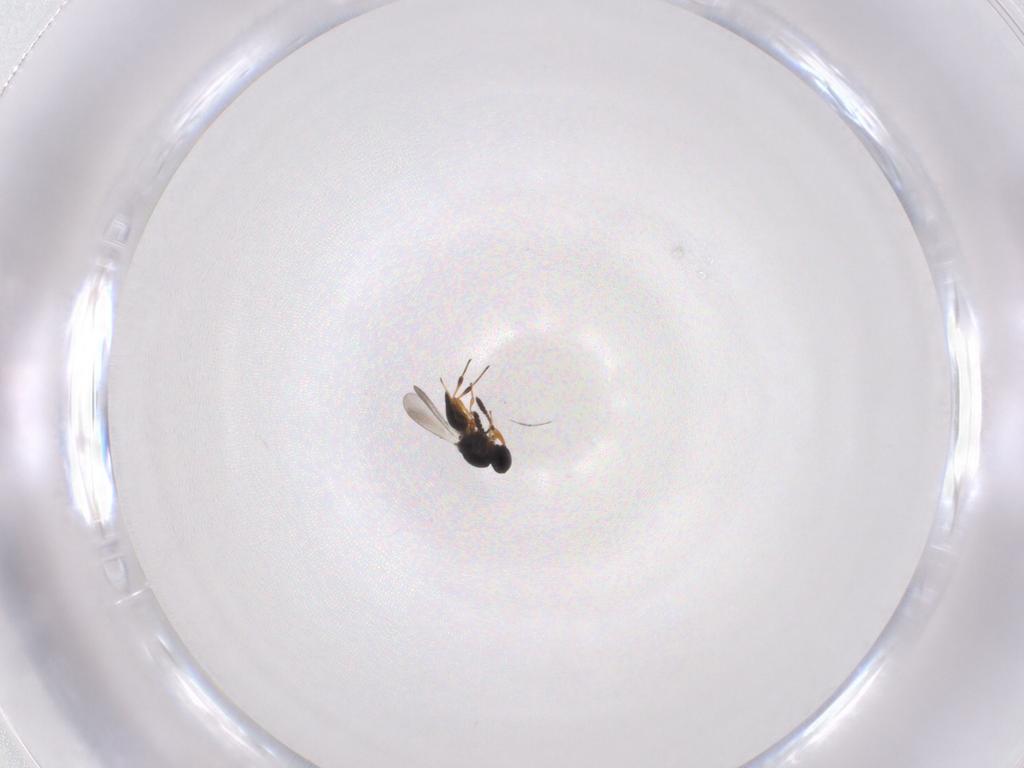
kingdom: Animalia
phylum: Arthropoda
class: Insecta
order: Hymenoptera
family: Platygastridae
